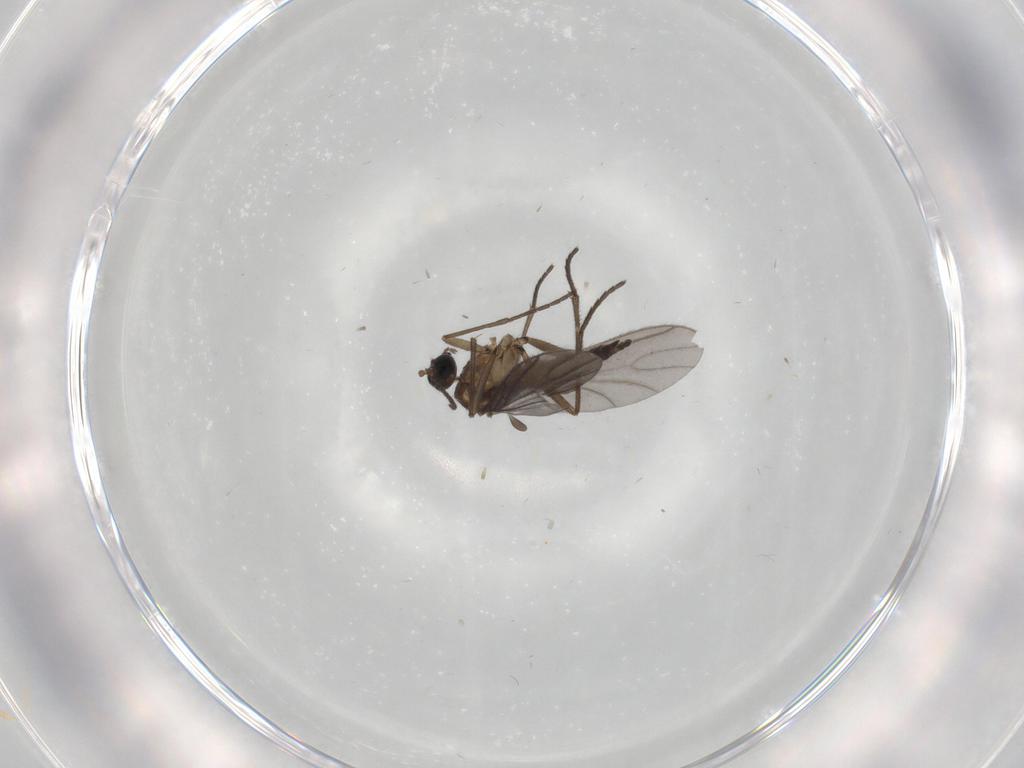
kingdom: Animalia
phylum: Arthropoda
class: Insecta
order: Diptera
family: Sciaridae
